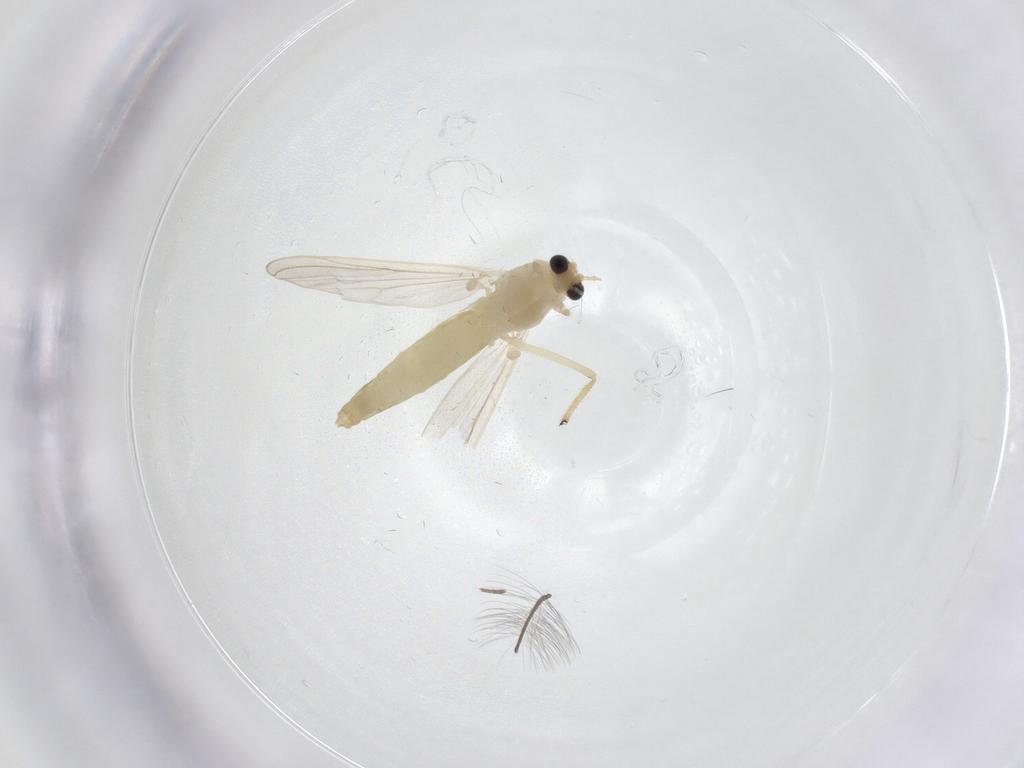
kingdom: Animalia
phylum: Arthropoda
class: Insecta
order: Diptera
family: Chironomidae
